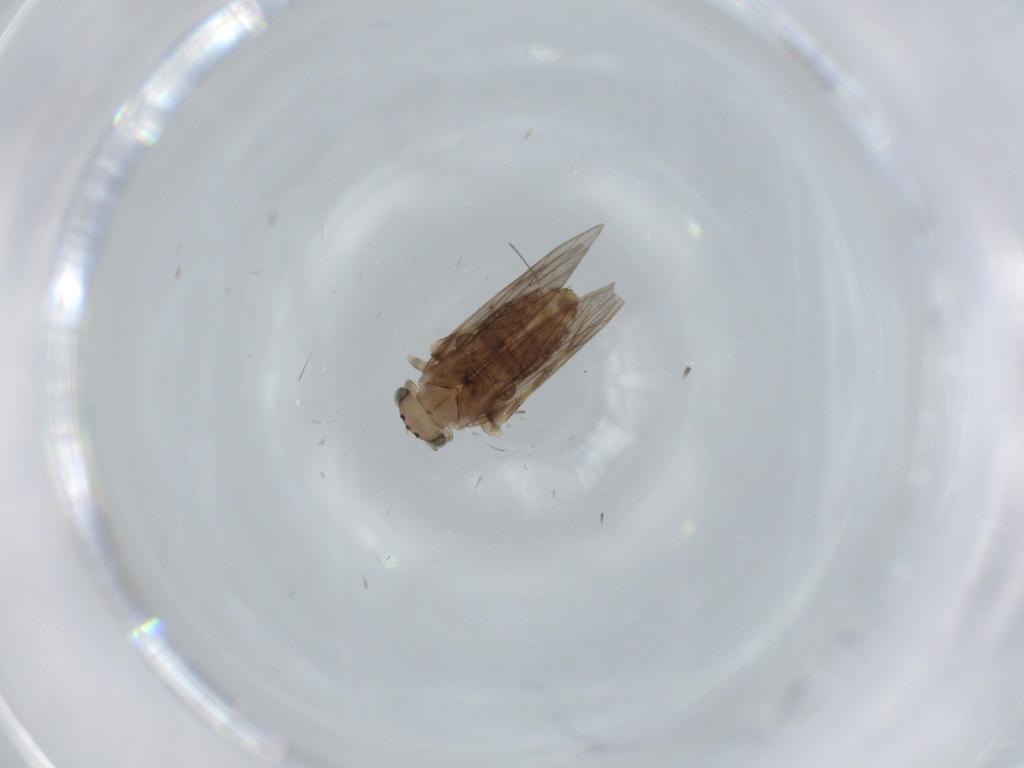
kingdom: Animalia
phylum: Arthropoda
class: Insecta
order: Psocodea
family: Lepidopsocidae
